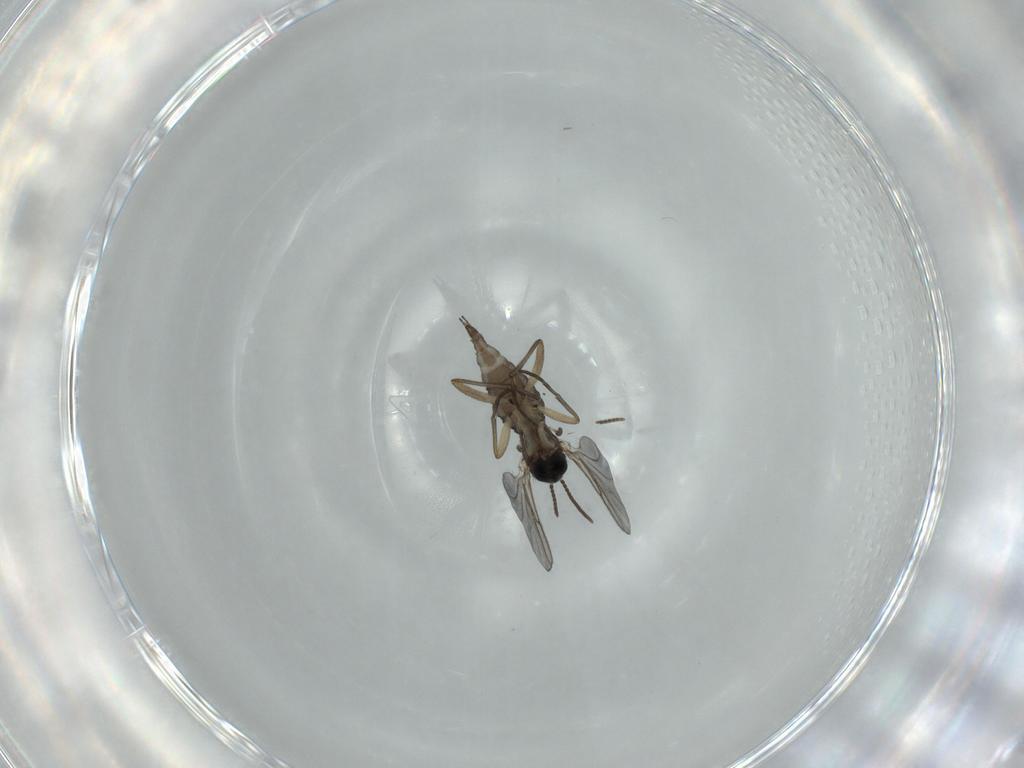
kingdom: Animalia
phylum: Arthropoda
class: Insecta
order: Diptera
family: Sciaridae
